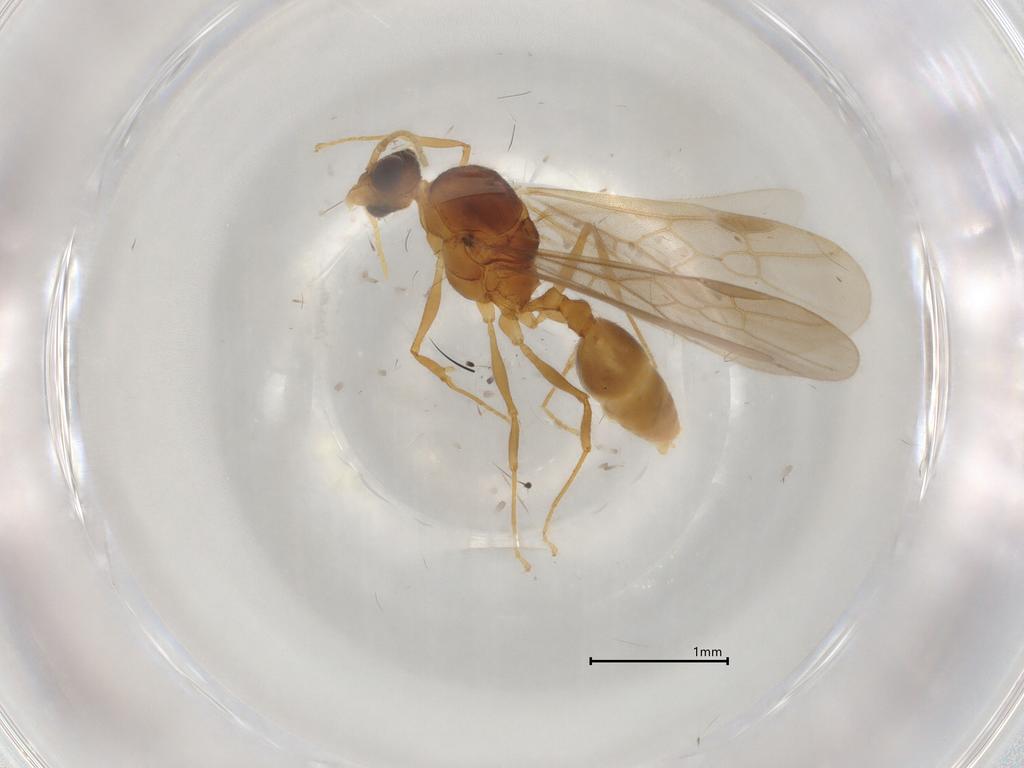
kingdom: Animalia
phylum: Arthropoda
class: Insecta
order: Hymenoptera
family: Formicidae
